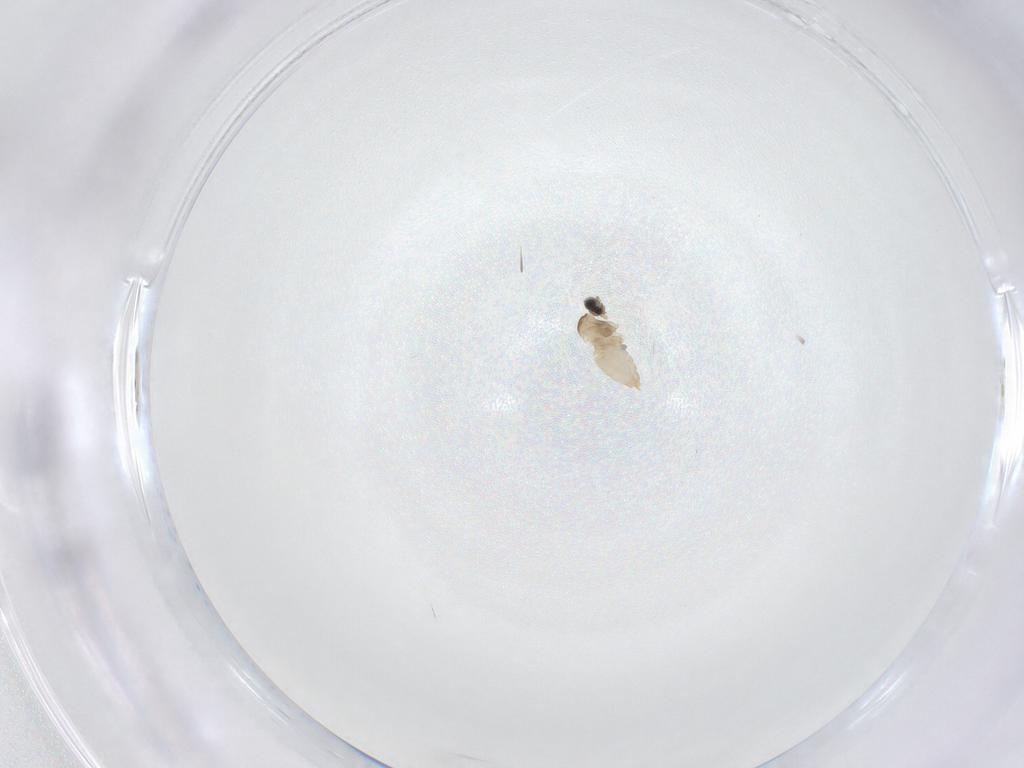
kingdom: Animalia
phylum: Arthropoda
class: Insecta
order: Diptera
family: Cecidomyiidae
